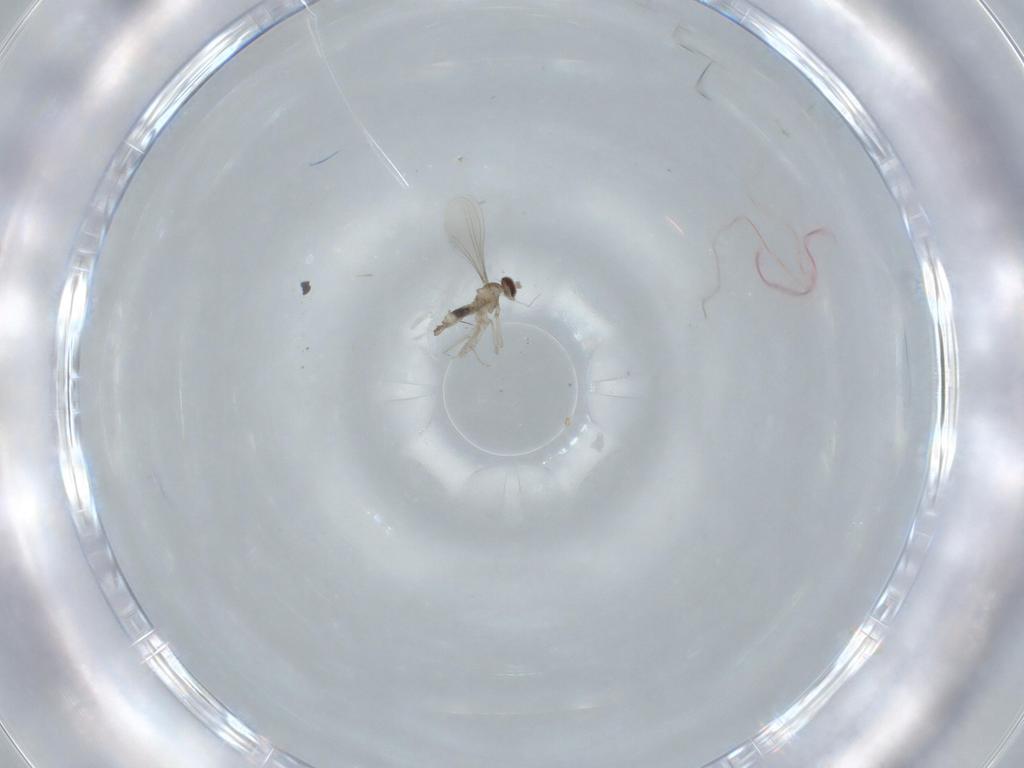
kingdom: Animalia
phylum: Arthropoda
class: Insecta
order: Diptera
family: Cecidomyiidae
